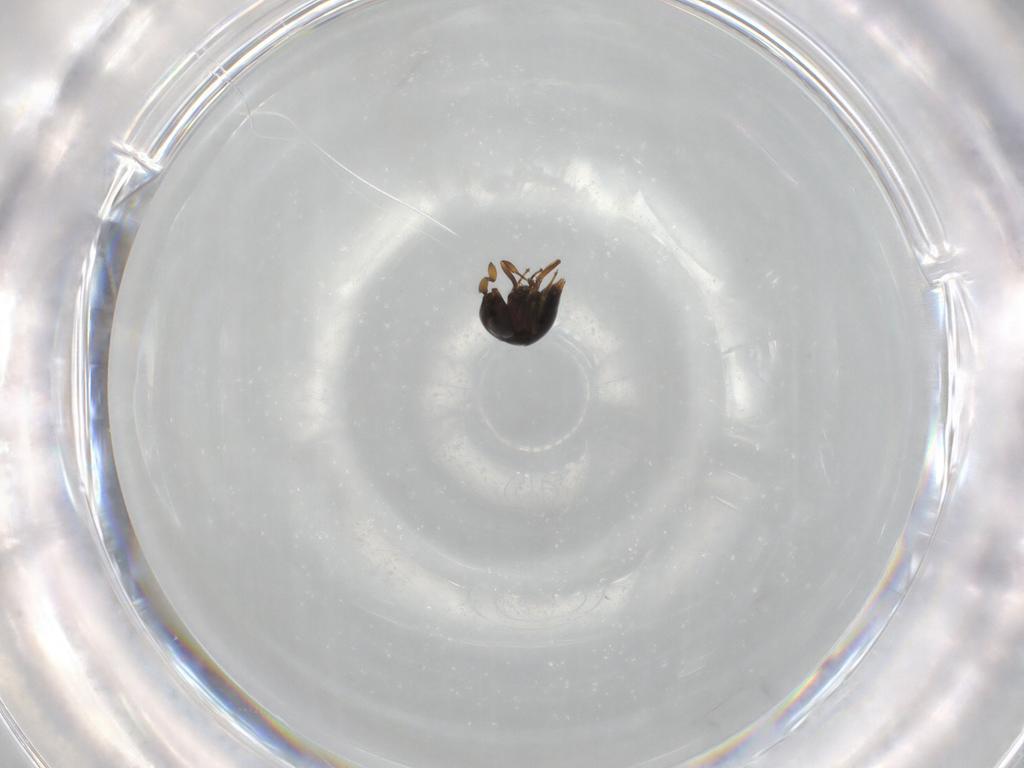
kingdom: Animalia
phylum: Arthropoda
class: Insecta
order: Hymenoptera
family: Scelionidae
